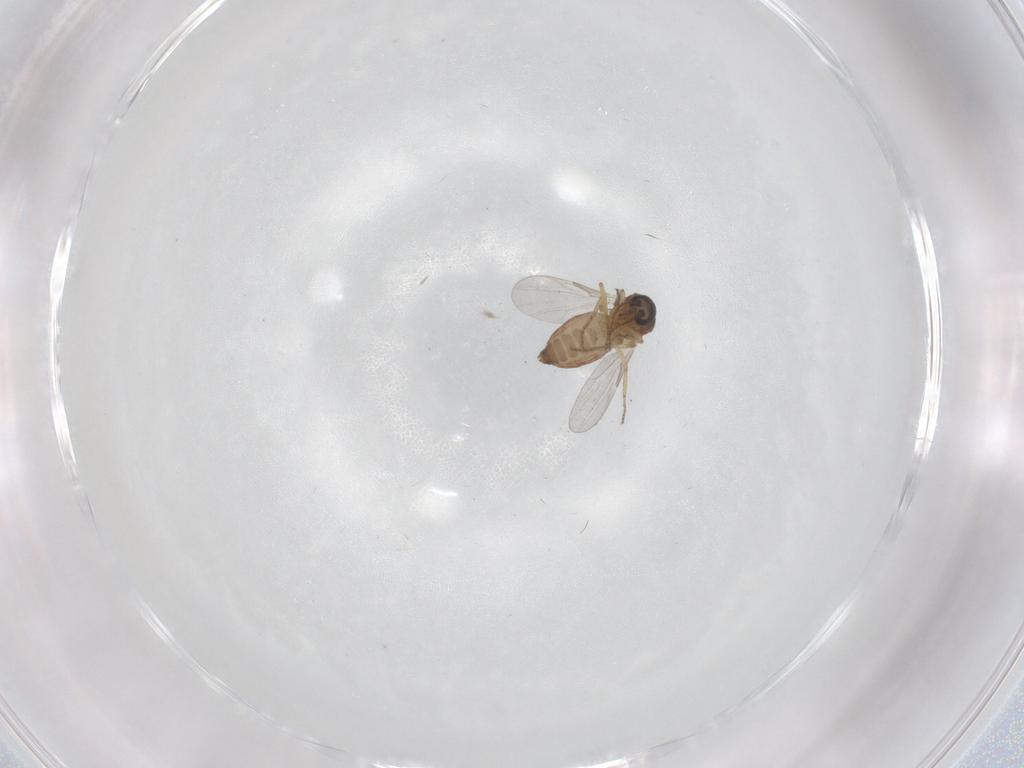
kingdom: Animalia
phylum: Arthropoda
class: Insecta
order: Diptera
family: Ceratopogonidae
